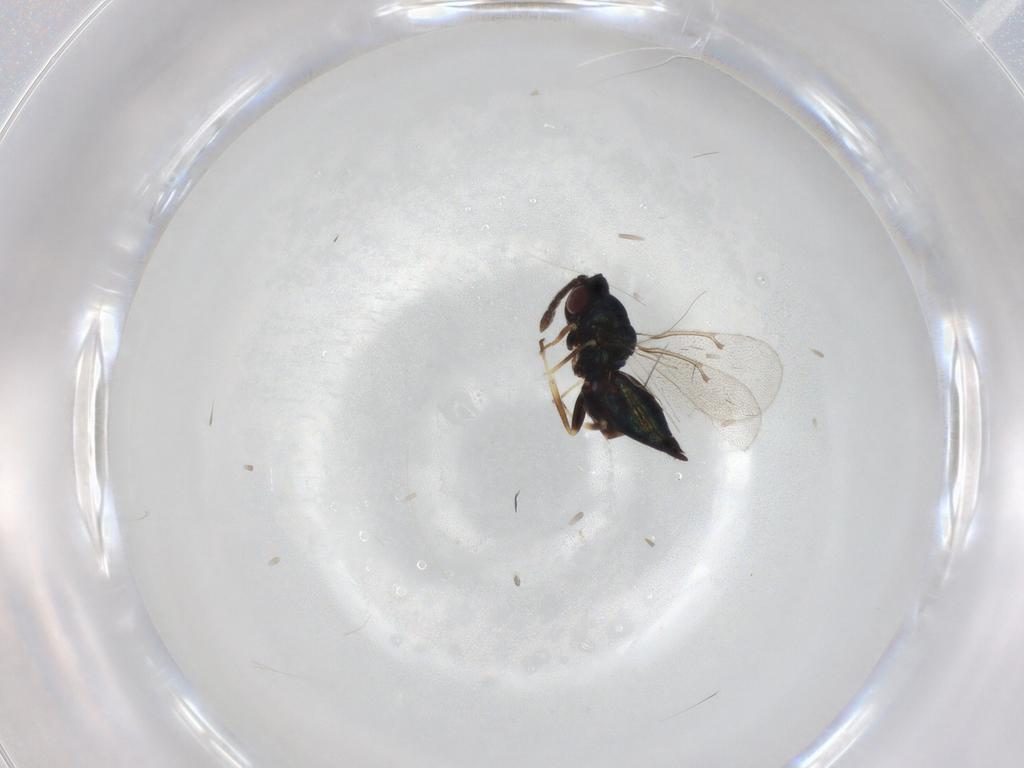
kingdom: Animalia
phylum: Arthropoda
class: Insecta
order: Hymenoptera
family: Eulophidae
